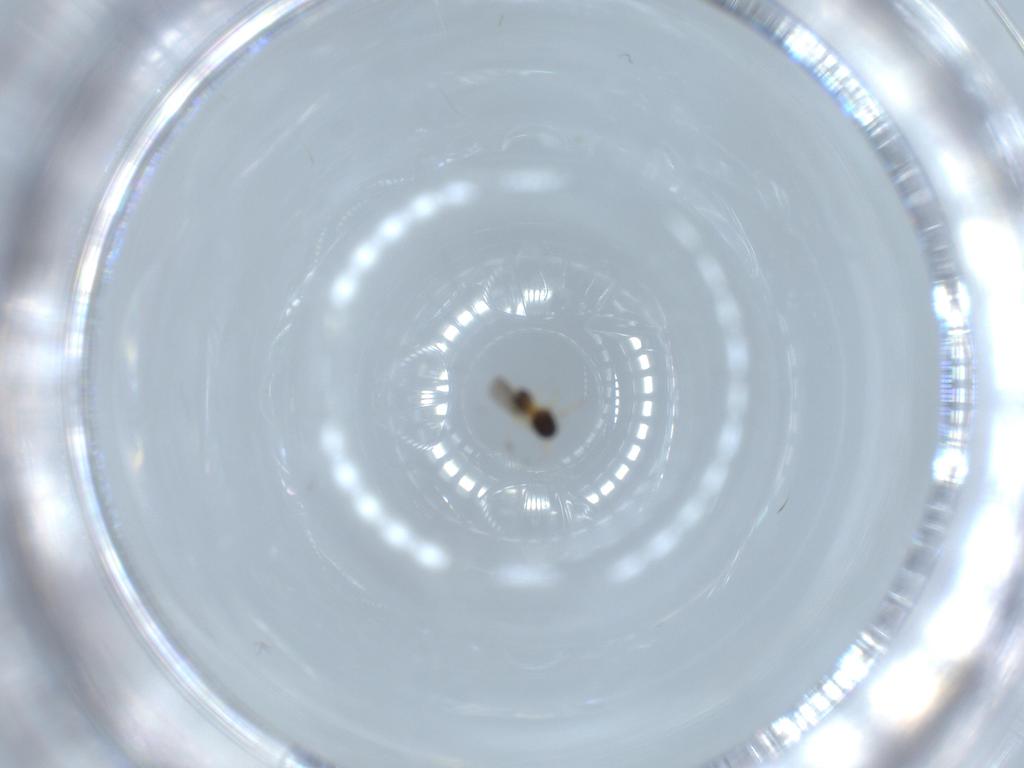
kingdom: Animalia
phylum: Arthropoda
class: Insecta
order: Hymenoptera
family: Scelionidae
